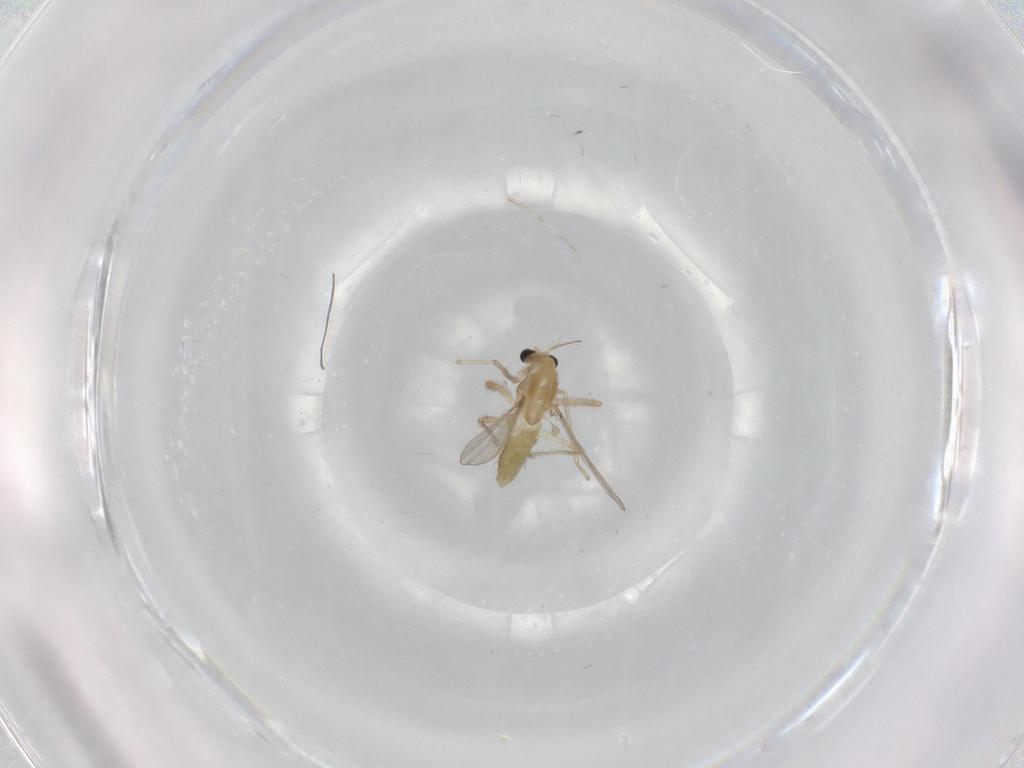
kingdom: Animalia
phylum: Arthropoda
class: Insecta
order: Diptera
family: Chironomidae
